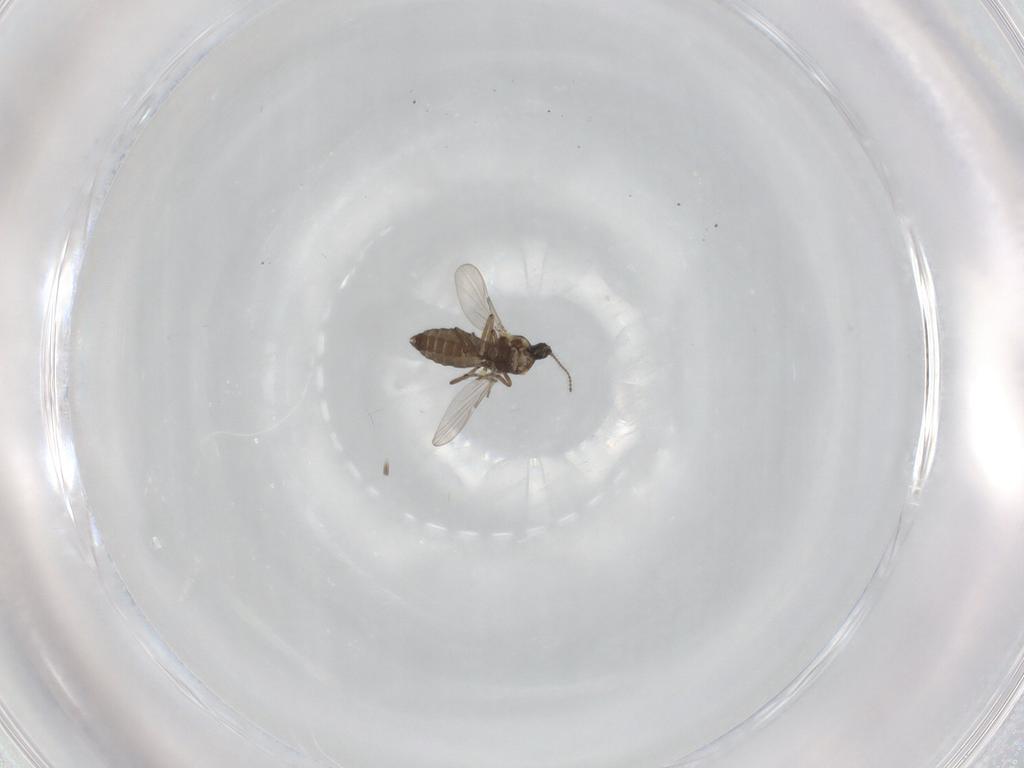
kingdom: Animalia
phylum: Arthropoda
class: Insecta
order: Diptera
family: Ceratopogonidae
